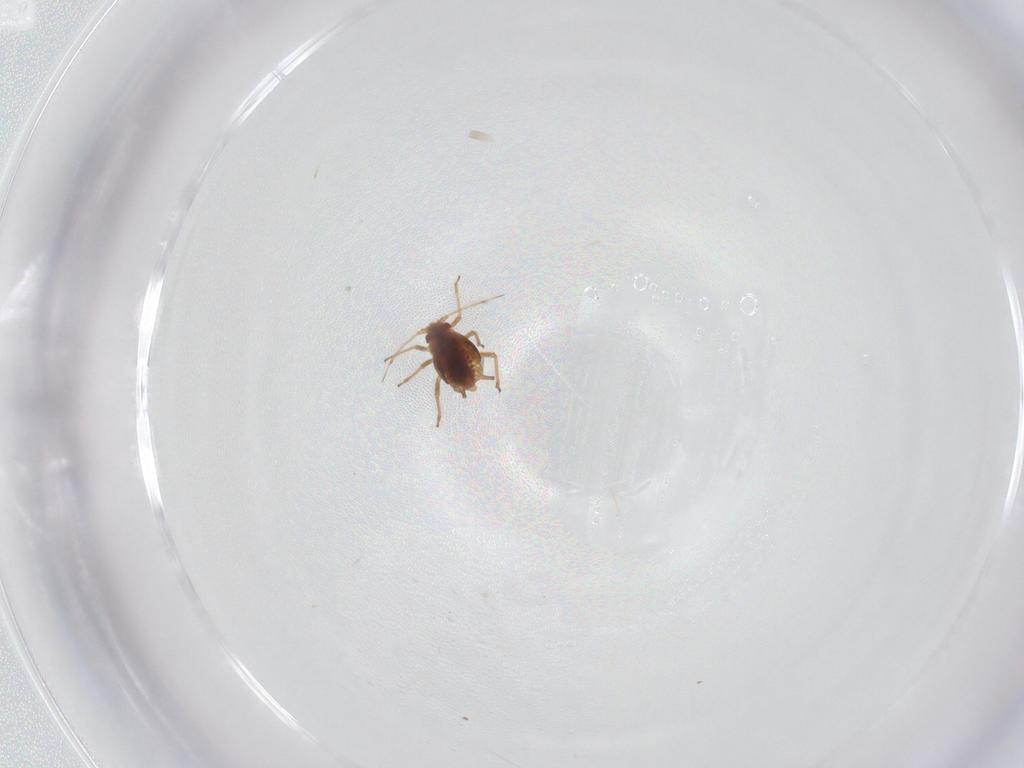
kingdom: Animalia
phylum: Arthropoda
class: Insecta
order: Hemiptera
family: Aphididae
